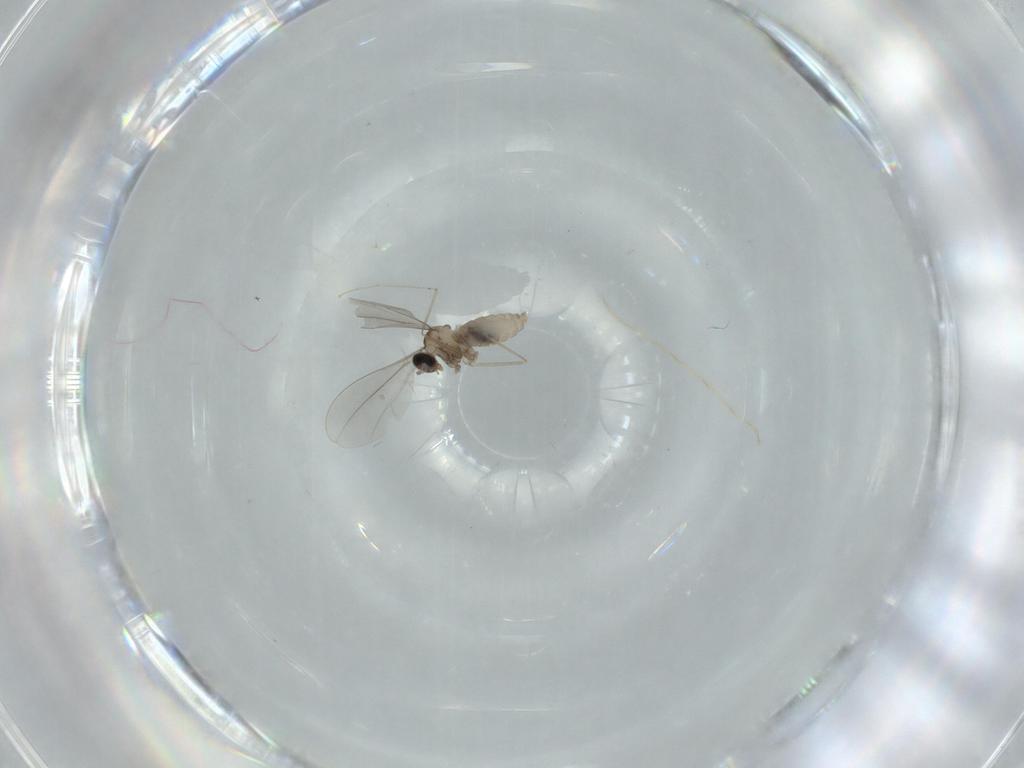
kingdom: Animalia
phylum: Arthropoda
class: Insecta
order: Diptera
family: Cecidomyiidae
